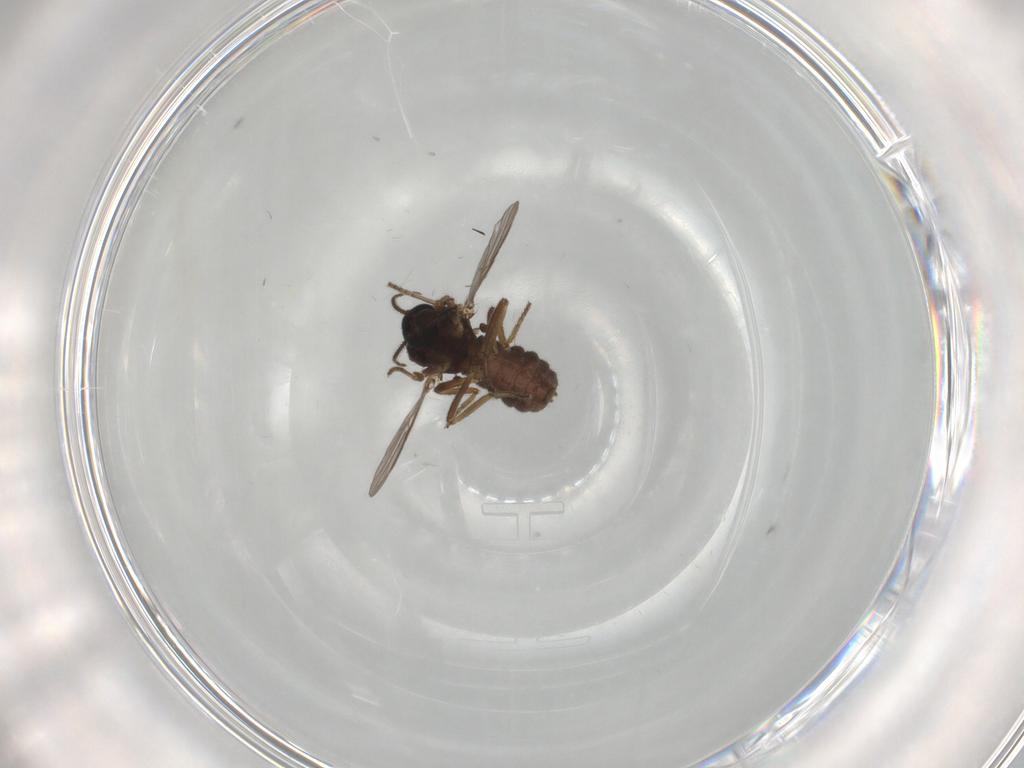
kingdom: Animalia
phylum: Arthropoda
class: Insecta
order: Diptera
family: Ceratopogonidae
